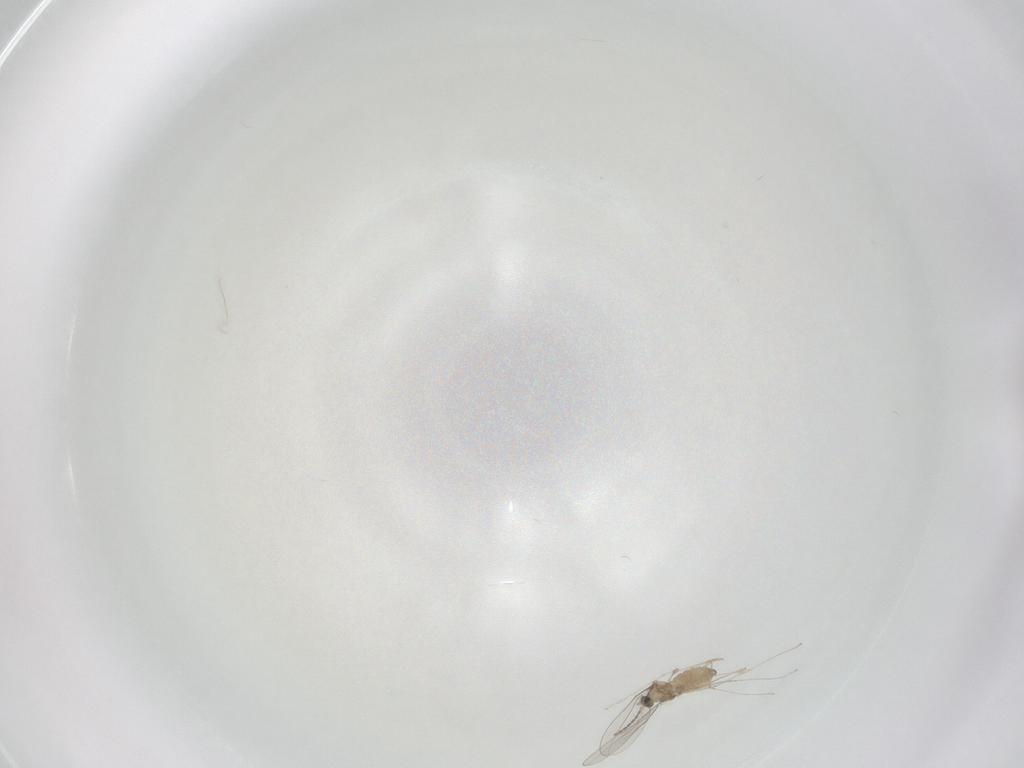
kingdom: Animalia
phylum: Arthropoda
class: Insecta
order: Diptera
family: Cecidomyiidae
